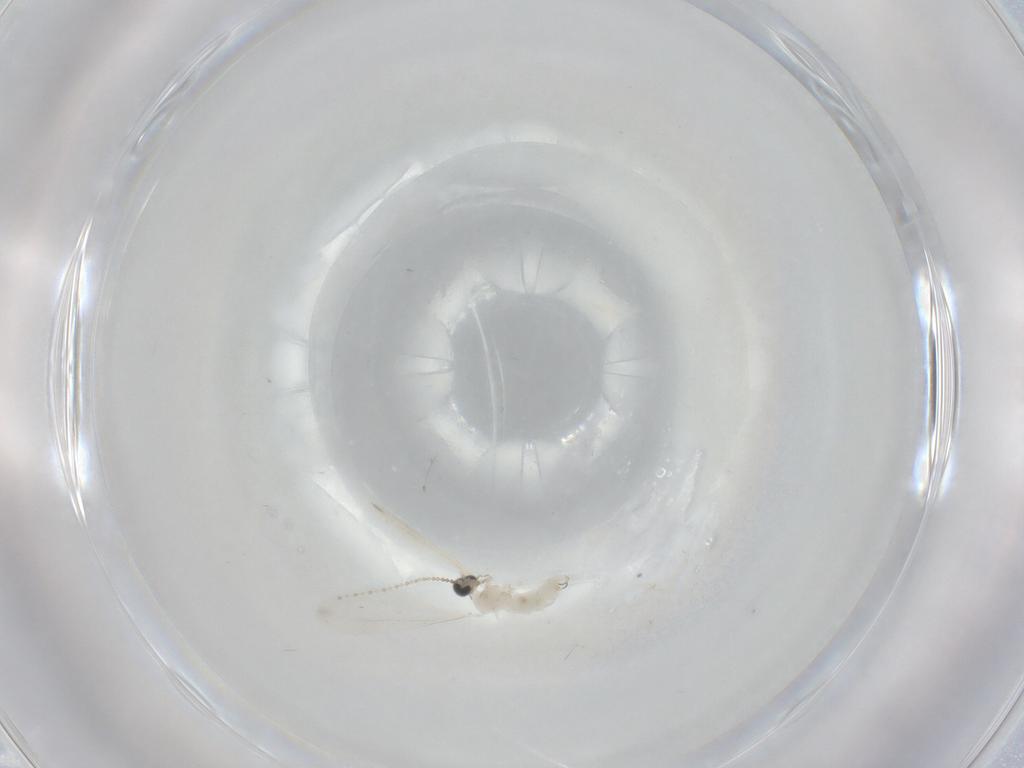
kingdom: Animalia
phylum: Arthropoda
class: Insecta
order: Diptera
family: Cecidomyiidae
